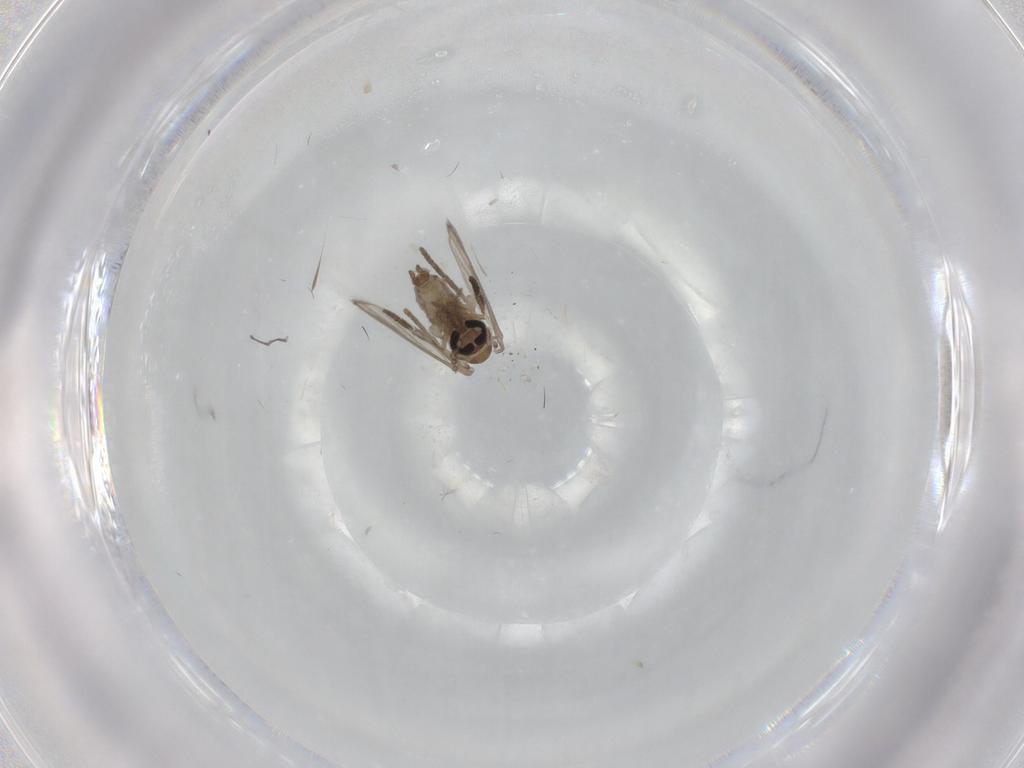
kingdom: Animalia
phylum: Arthropoda
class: Insecta
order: Diptera
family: Psychodidae
